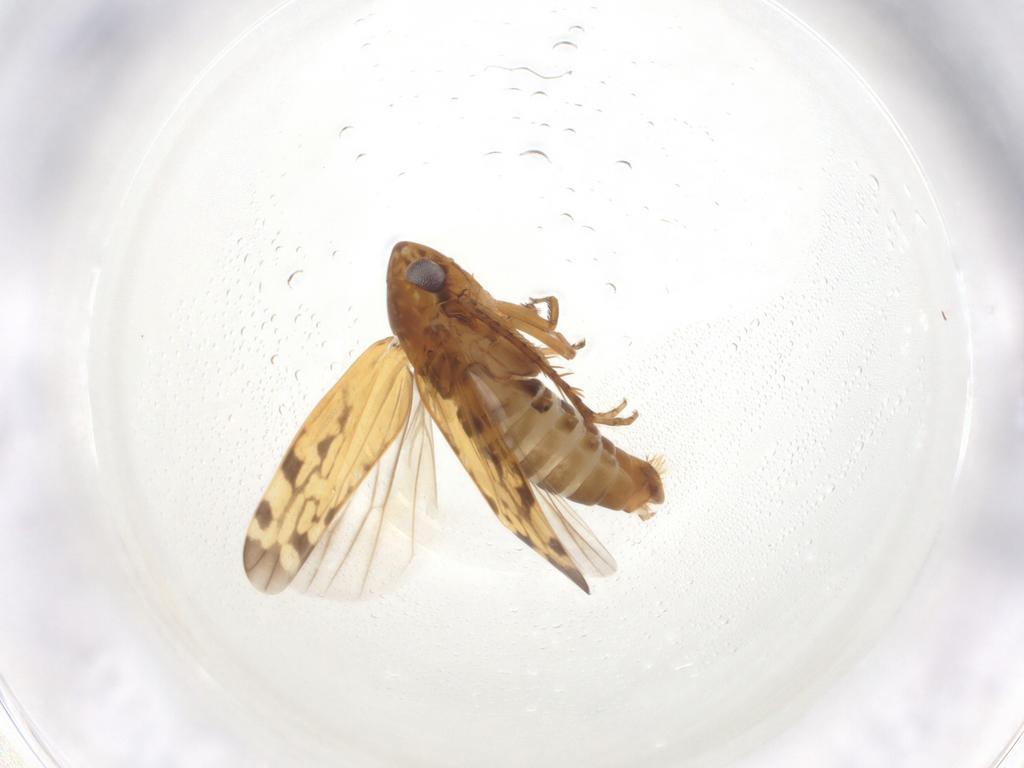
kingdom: Animalia
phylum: Arthropoda
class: Insecta
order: Hemiptera
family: Cicadellidae
